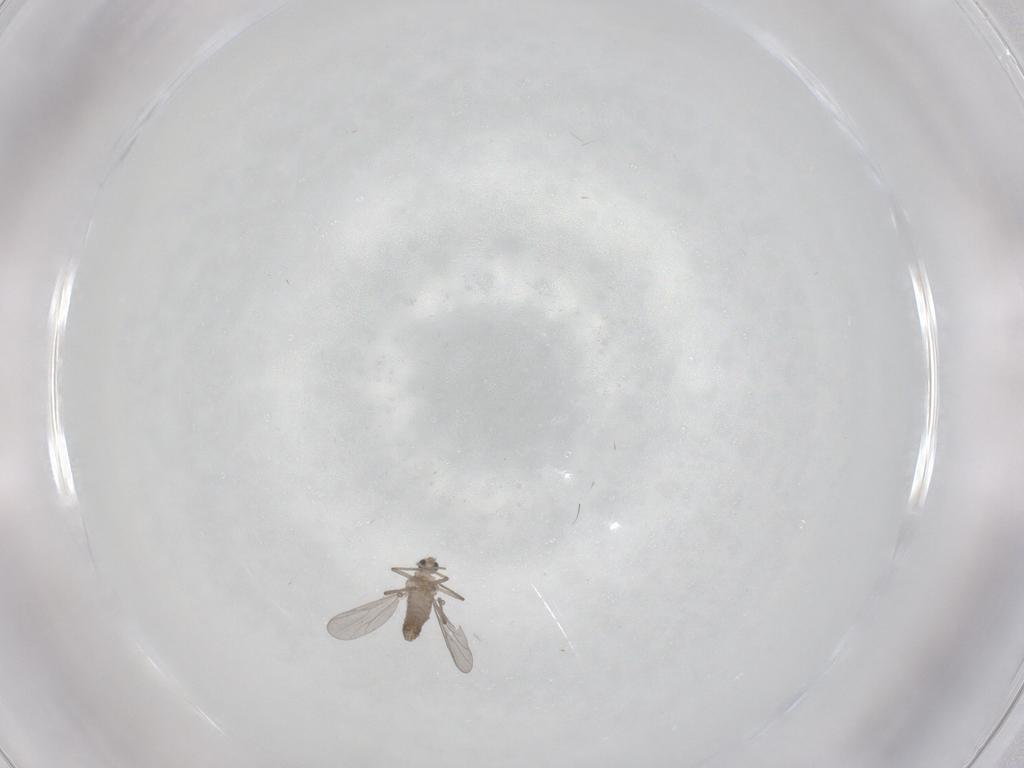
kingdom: Animalia
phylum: Arthropoda
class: Insecta
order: Diptera
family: Chironomidae
